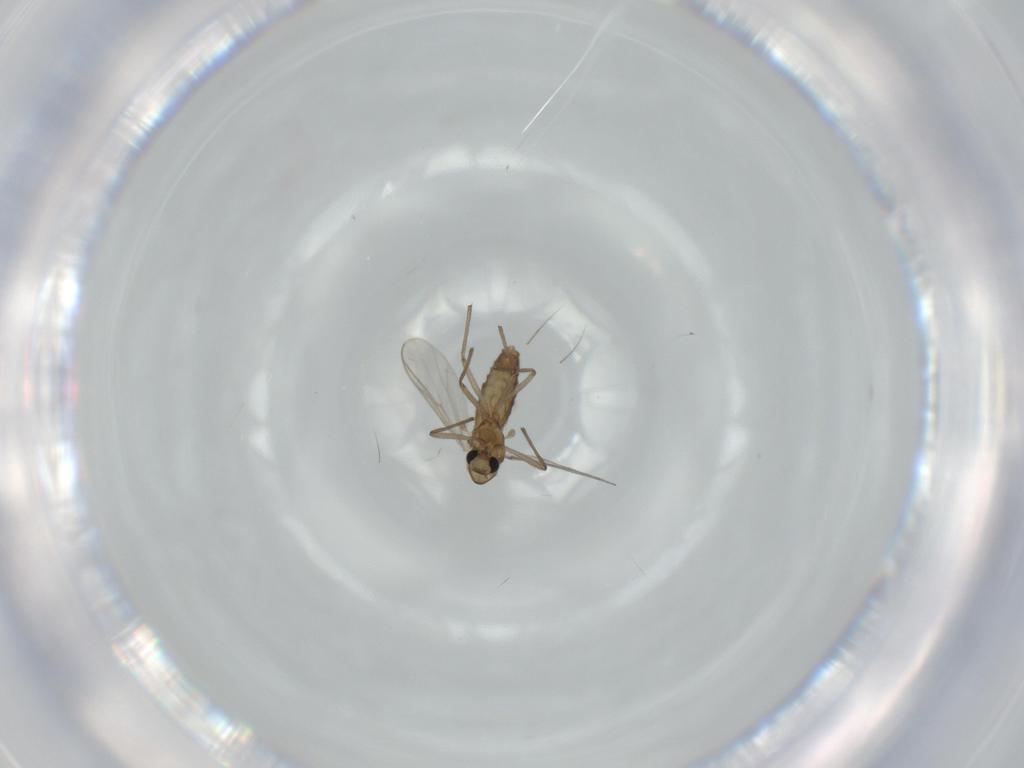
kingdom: Animalia
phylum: Arthropoda
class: Insecta
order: Diptera
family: Chironomidae
